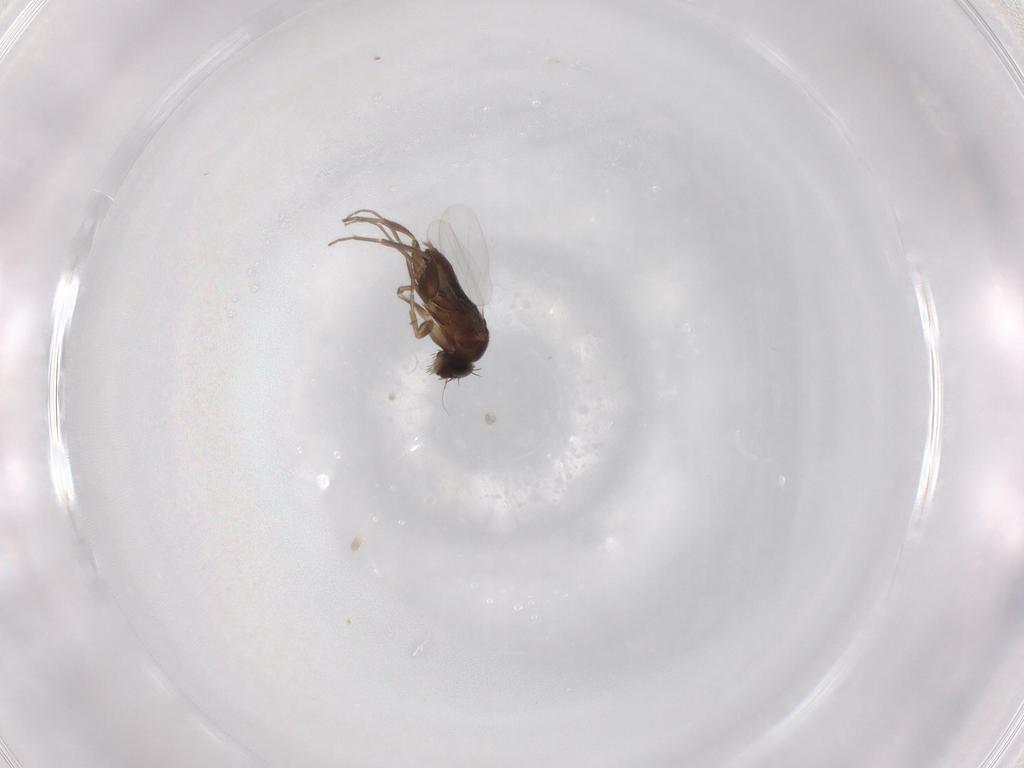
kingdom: Animalia
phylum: Arthropoda
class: Insecta
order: Diptera
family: Phoridae
